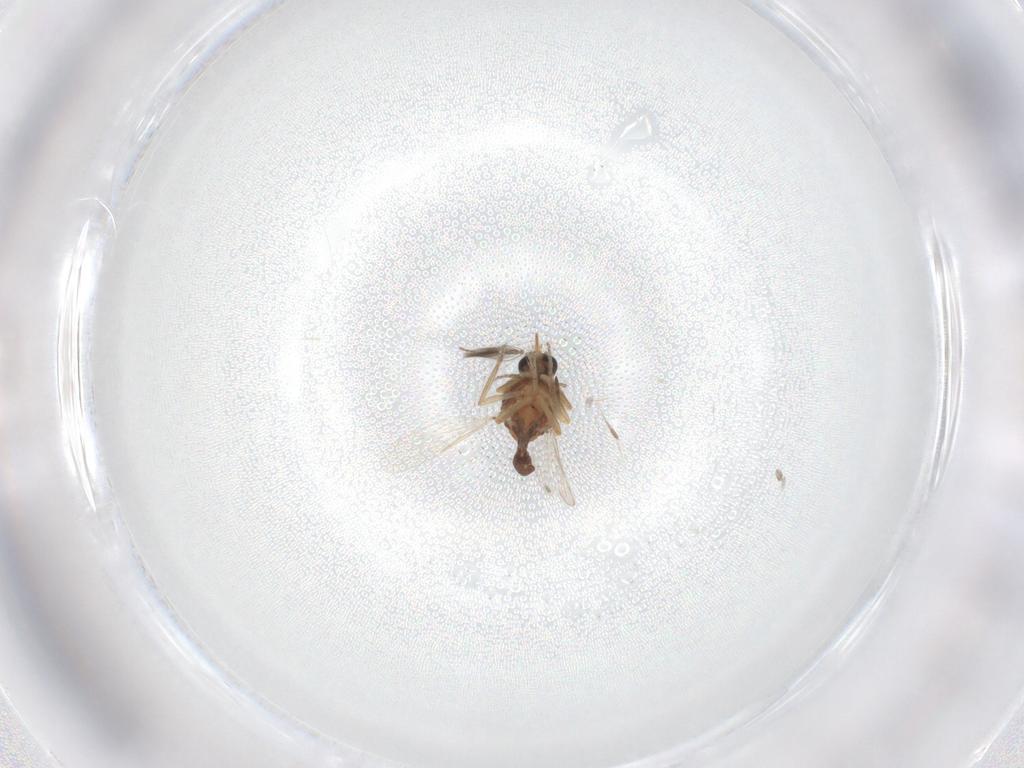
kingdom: Animalia
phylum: Arthropoda
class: Insecta
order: Diptera
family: Ceratopogonidae
